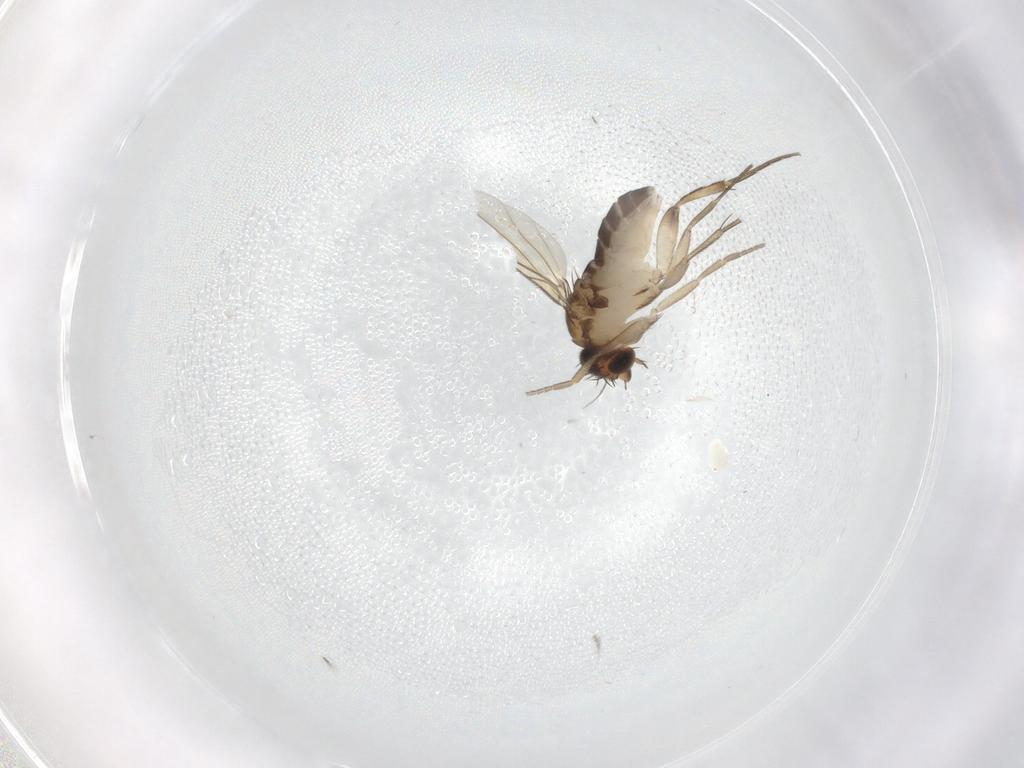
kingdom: Animalia
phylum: Arthropoda
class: Insecta
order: Diptera
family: Phoridae
